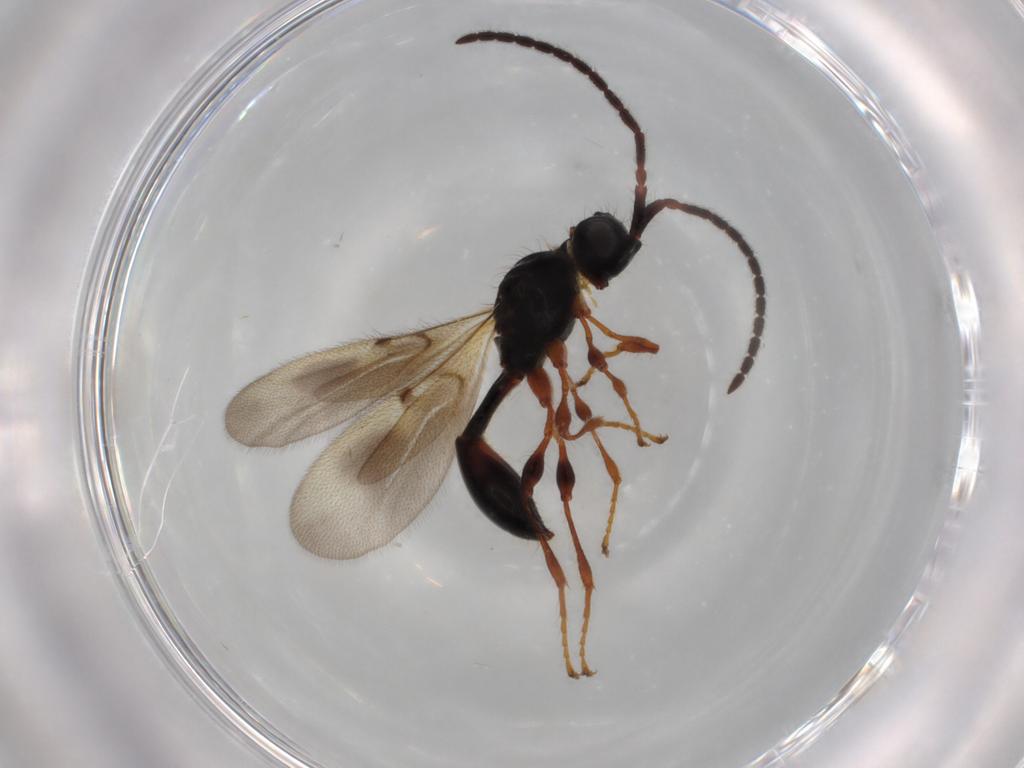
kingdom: Animalia
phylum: Arthropoda
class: Insecta
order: Hymenoptera
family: Diapriidae
